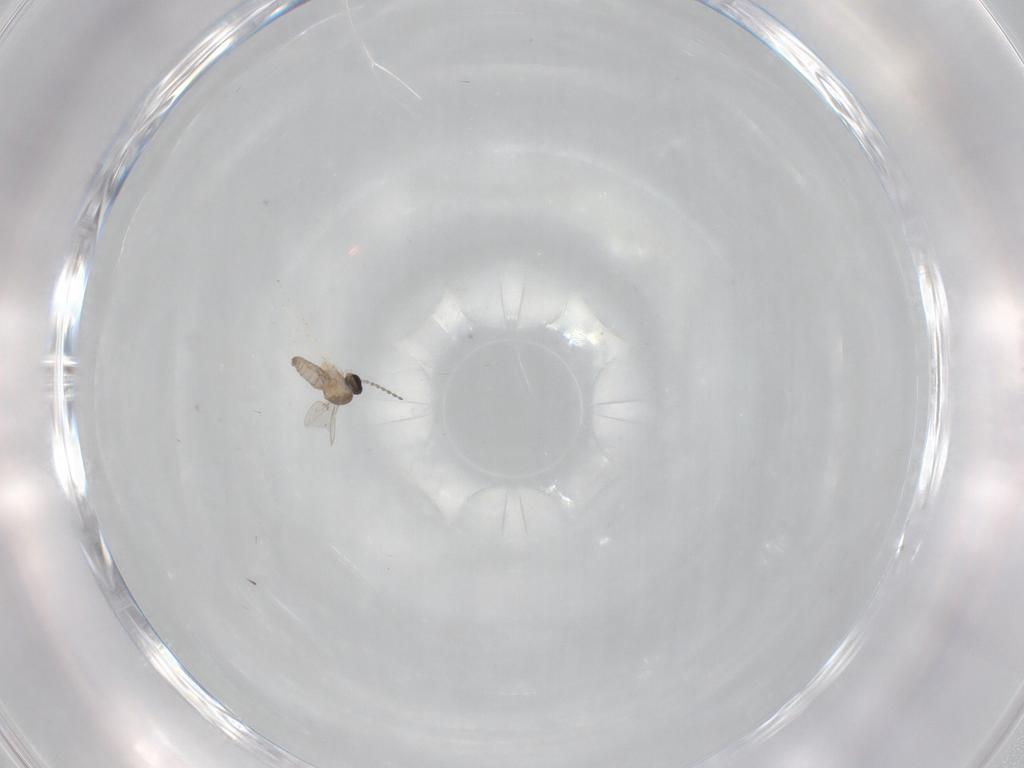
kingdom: Animalia
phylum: Arthropoda
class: Insecta
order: Diptera
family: Cecidomyiidae
